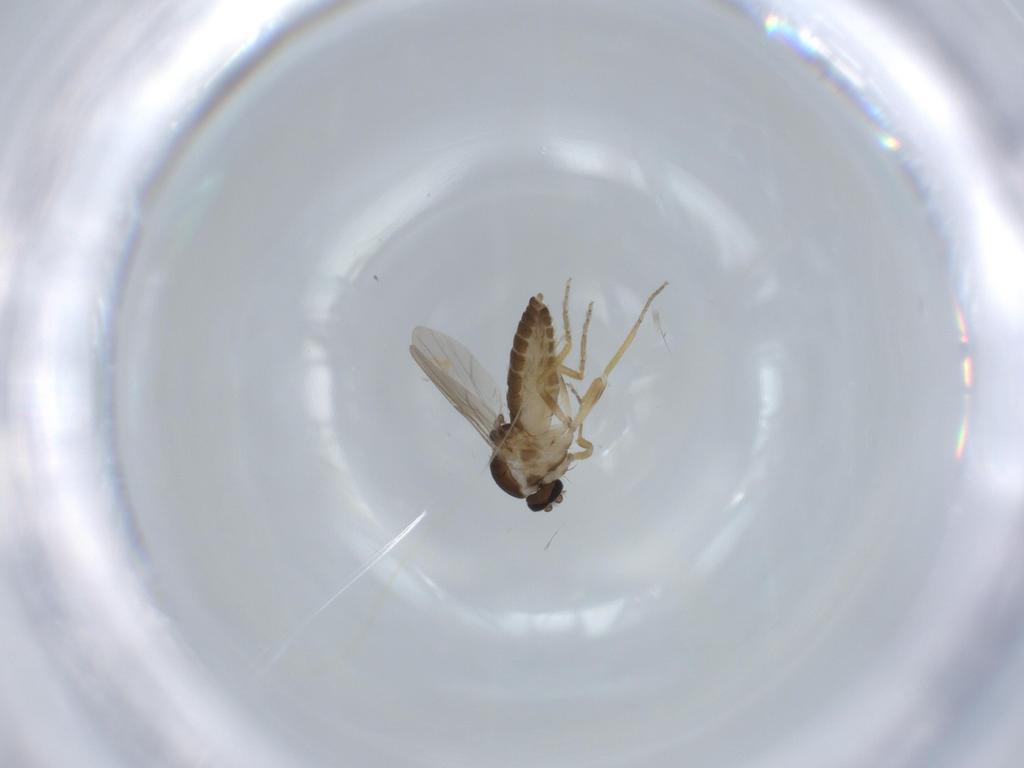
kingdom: Animalia
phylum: Arthropoda
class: Insecta
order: Diptera
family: Ceratopogonidae
